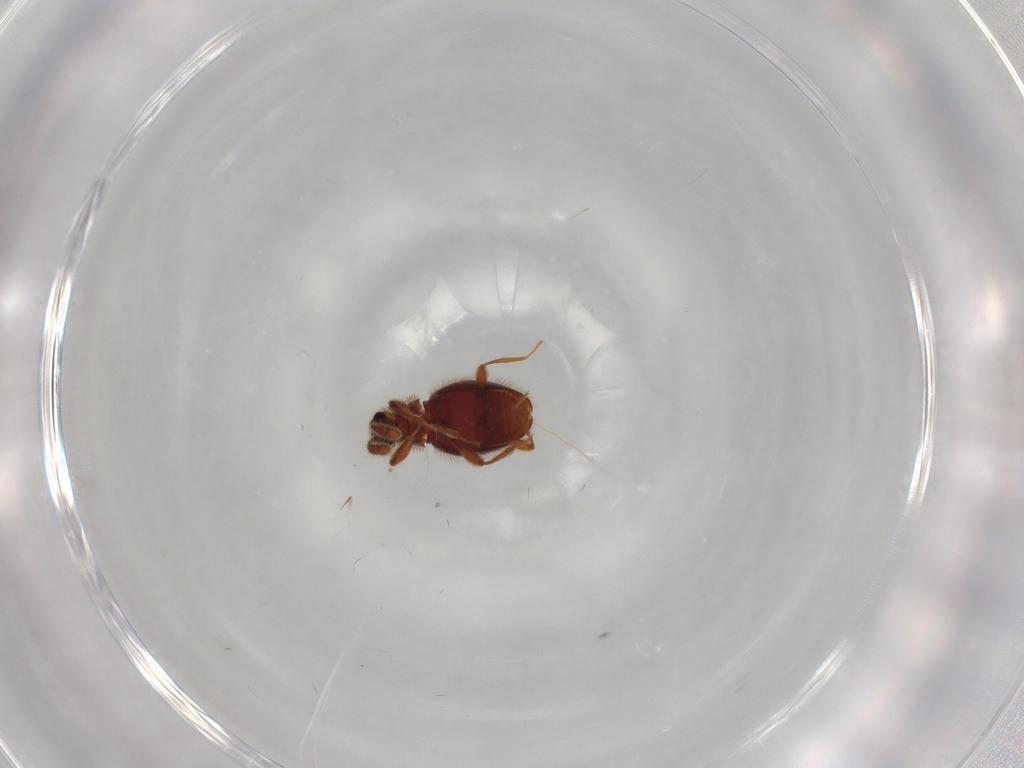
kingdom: Animalia
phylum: Arthropoda
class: Insecta
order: Coleoptera
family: Staphylinidae
